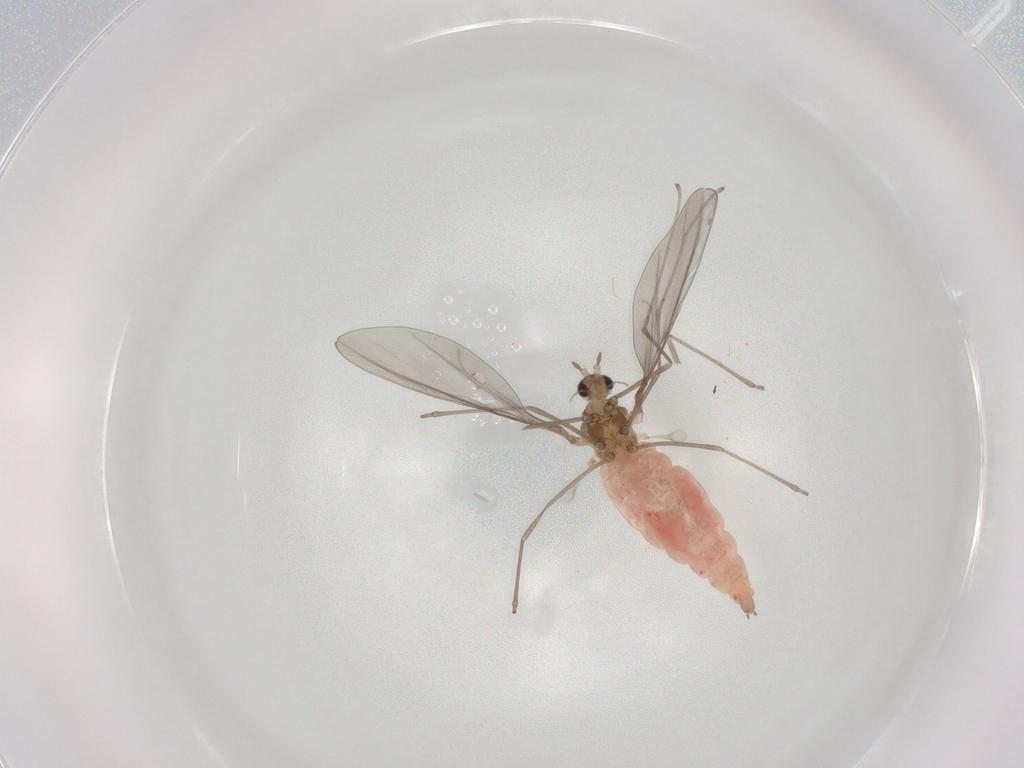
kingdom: Animalia
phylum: Arthropoda
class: Insecta
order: Diptera
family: Cecidomyiidae
